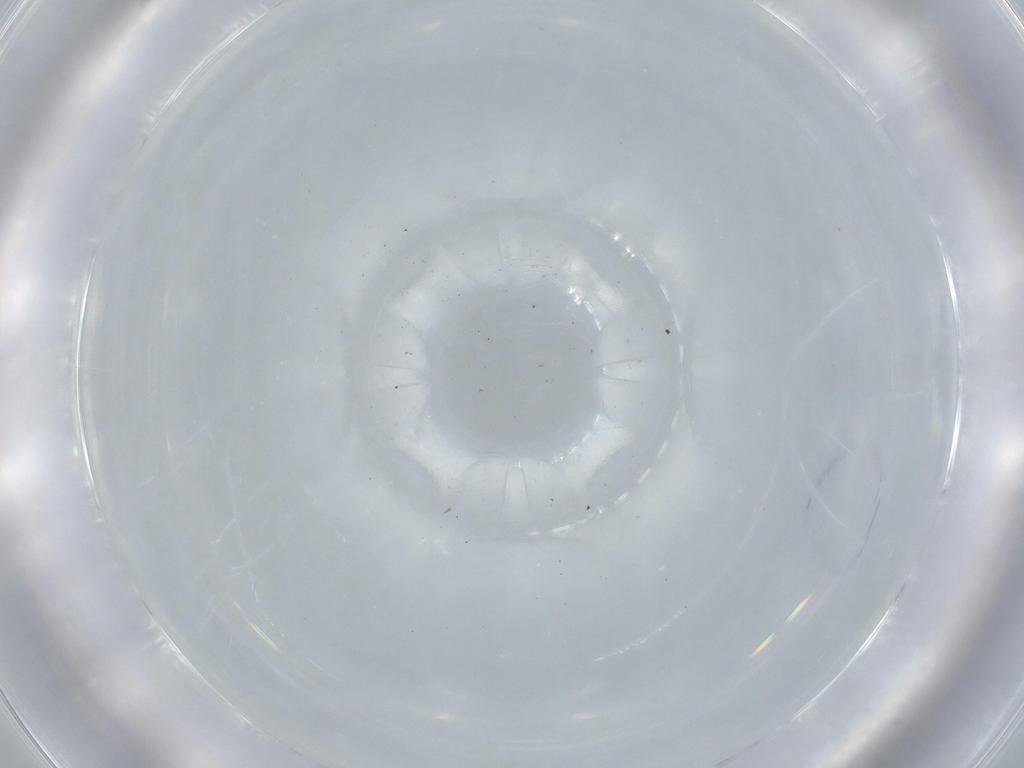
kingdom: Animalia
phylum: Arthropoda
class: Insecta
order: Diptera
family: Cecidomyiidae
